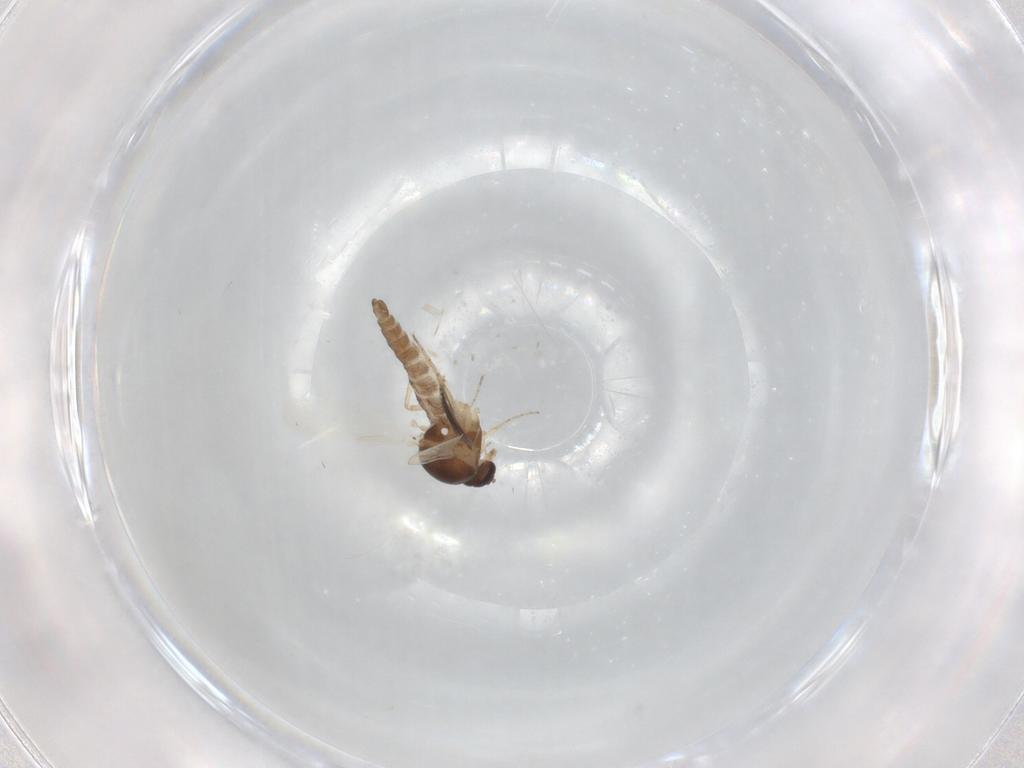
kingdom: Animalia
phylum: Arthropoda
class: Insecta
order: Diptera
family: Ceratopogonidae
